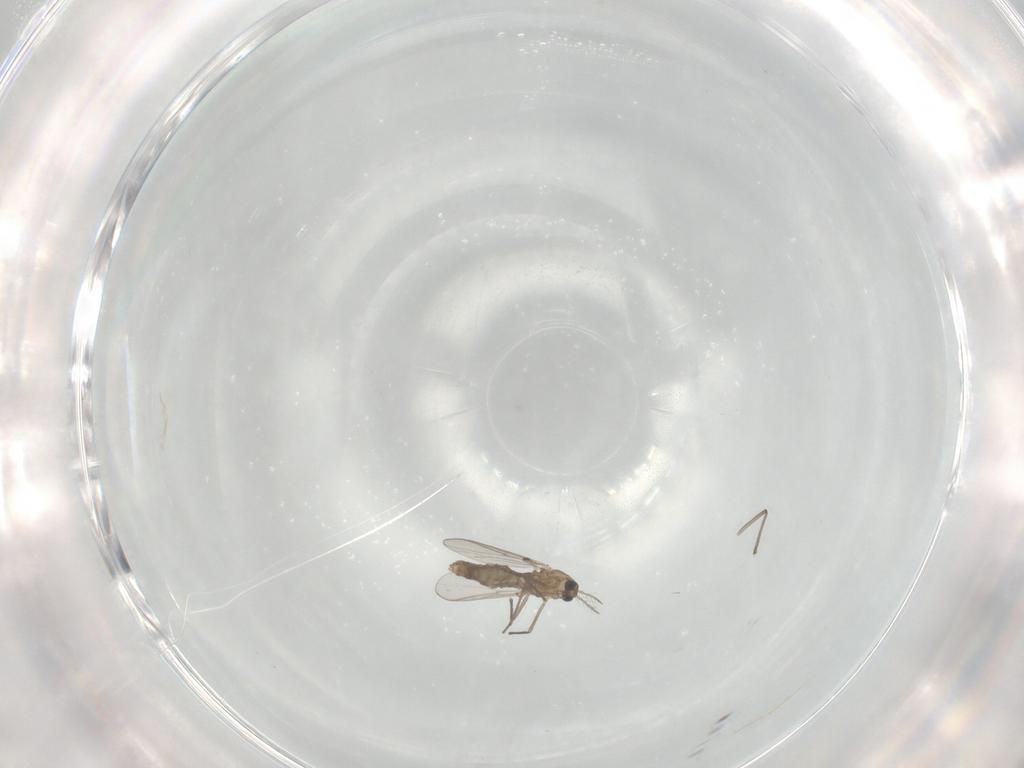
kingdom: Animalia
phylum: Arthropoda
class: Insecta
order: Diptera
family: Chironomidae
